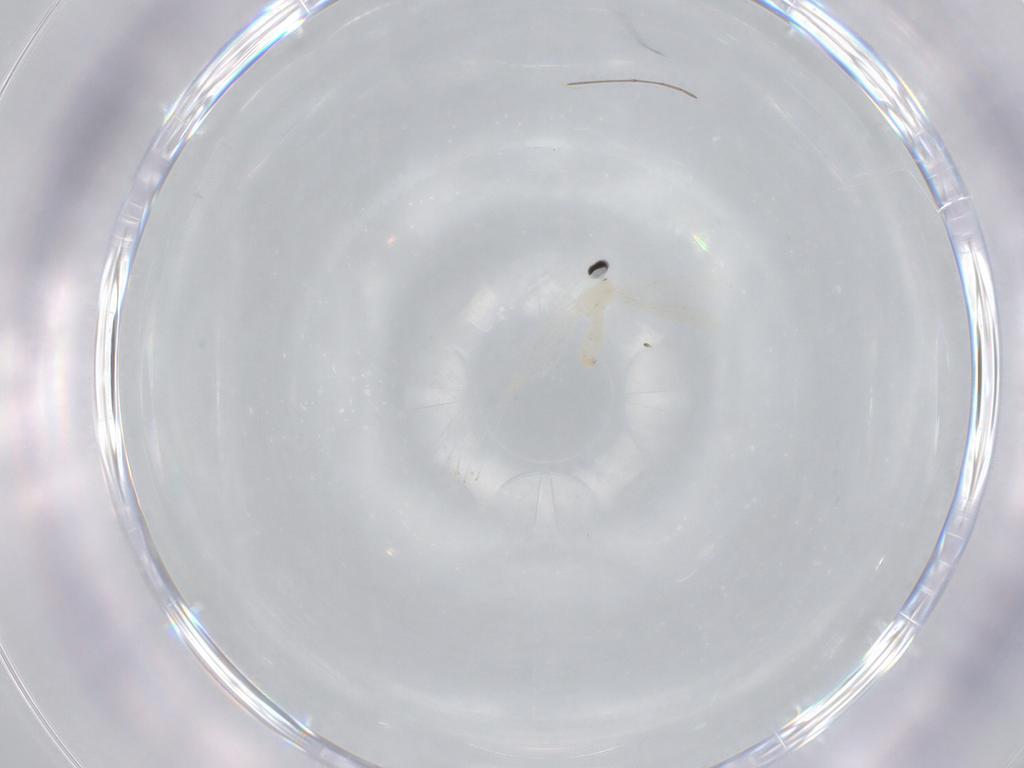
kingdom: Animalia
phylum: Arthropoda
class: Insecta
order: Diptera
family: Cecidomyiidae
